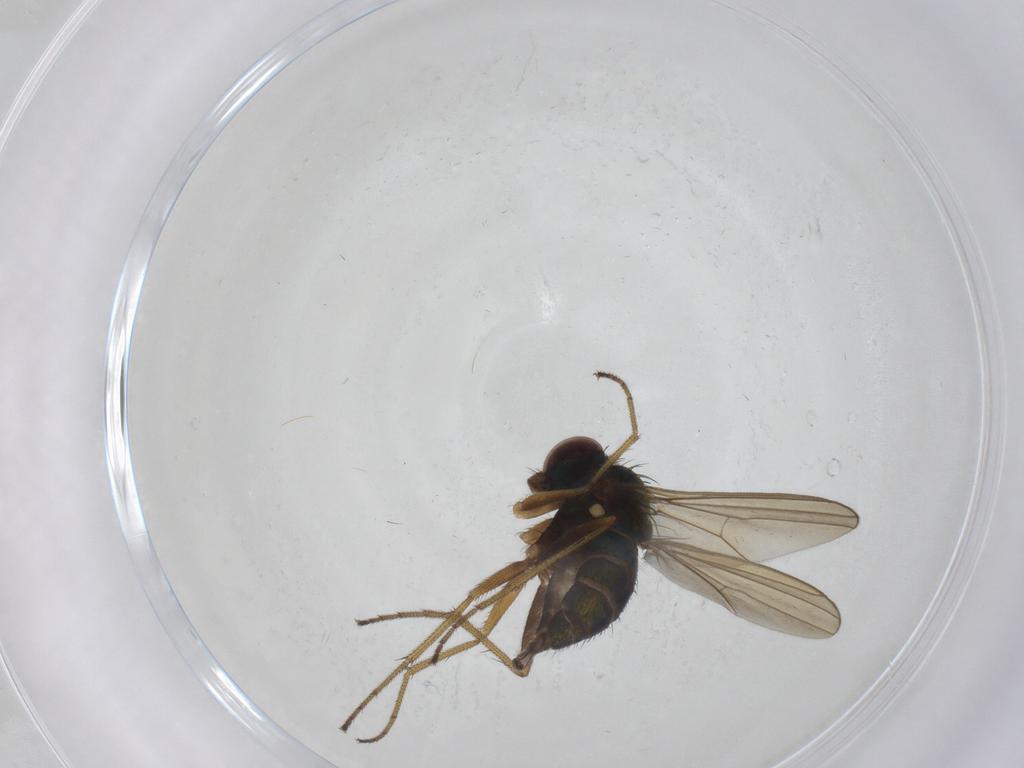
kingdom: Animalia
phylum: Arthropoda
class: Insecta
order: Diptera
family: Dolichopodidae
